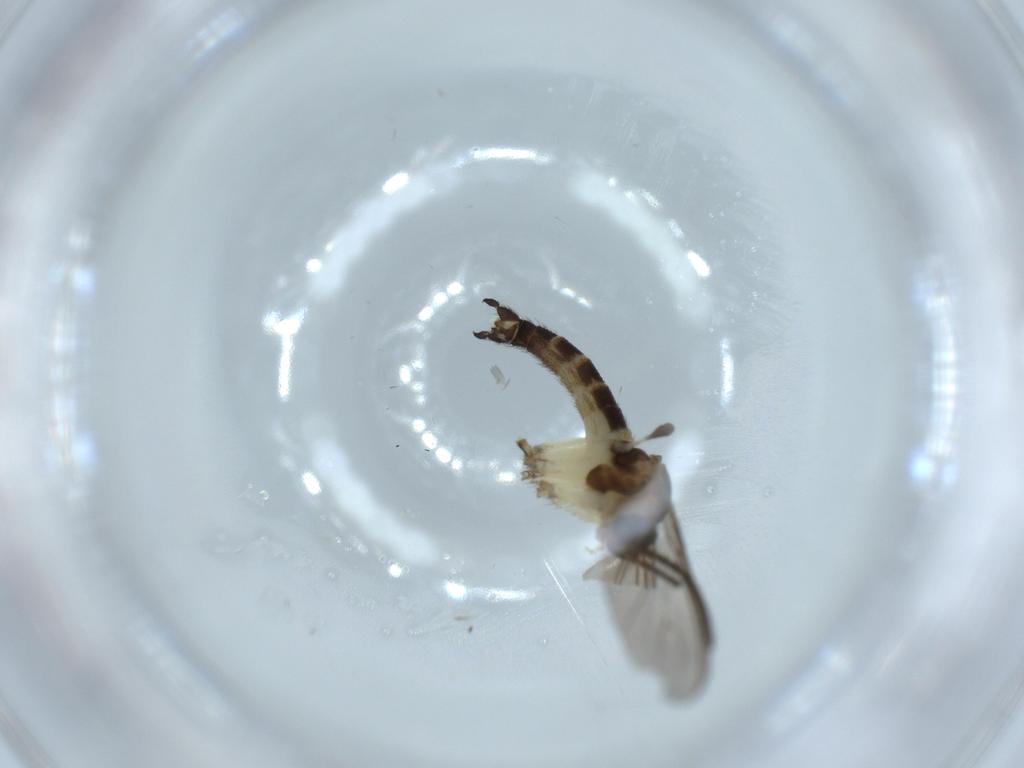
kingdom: Animalia
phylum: Arthropoda
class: Insecta
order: Diptera
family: Sciaridae
